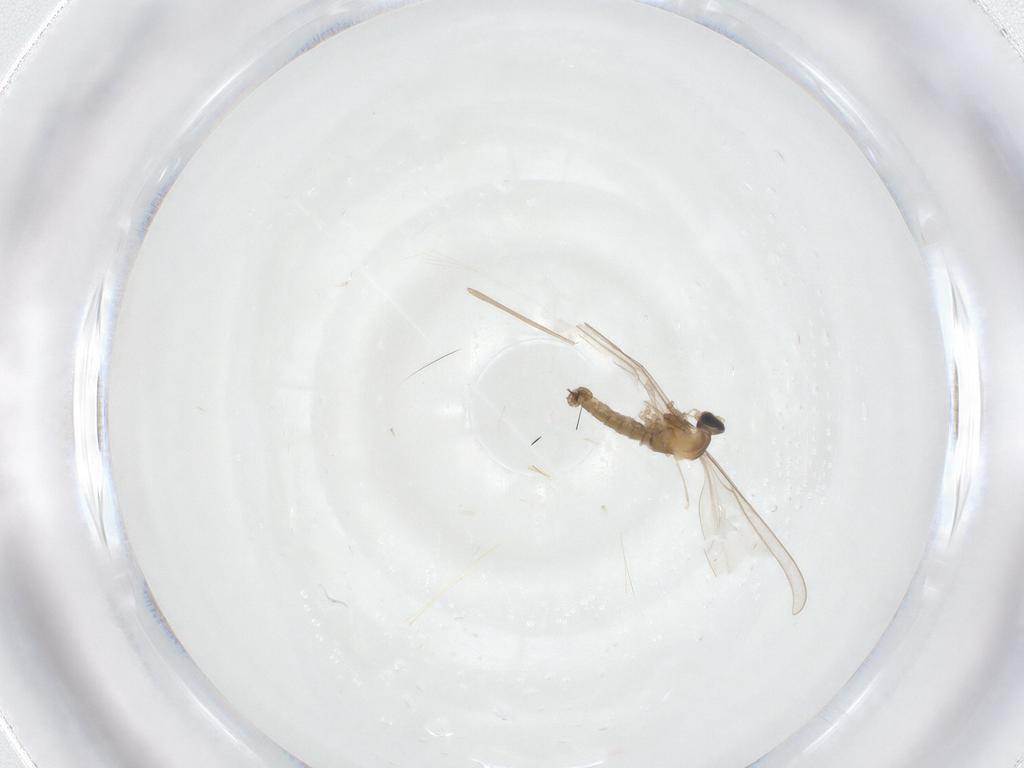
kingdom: Animalia
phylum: Arthropoda
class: Insecta
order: Diptera
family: Cecidomyiidae
